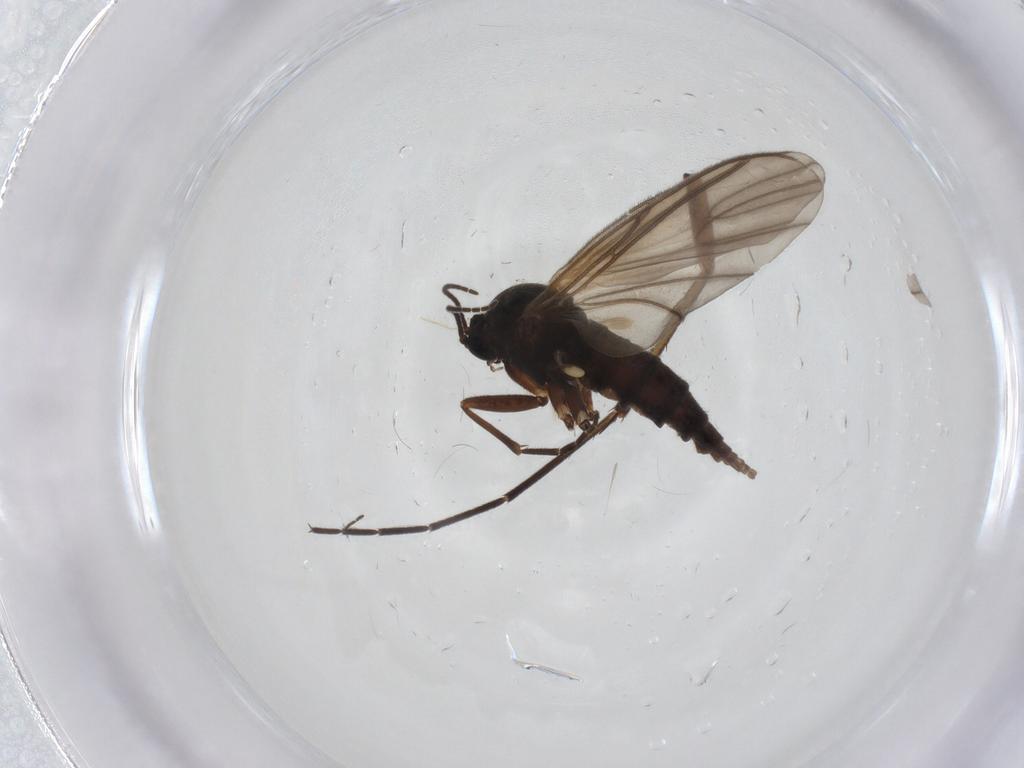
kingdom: Animalia
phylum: Arthropoda
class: Insecta
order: Diptera
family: Sciaridae
